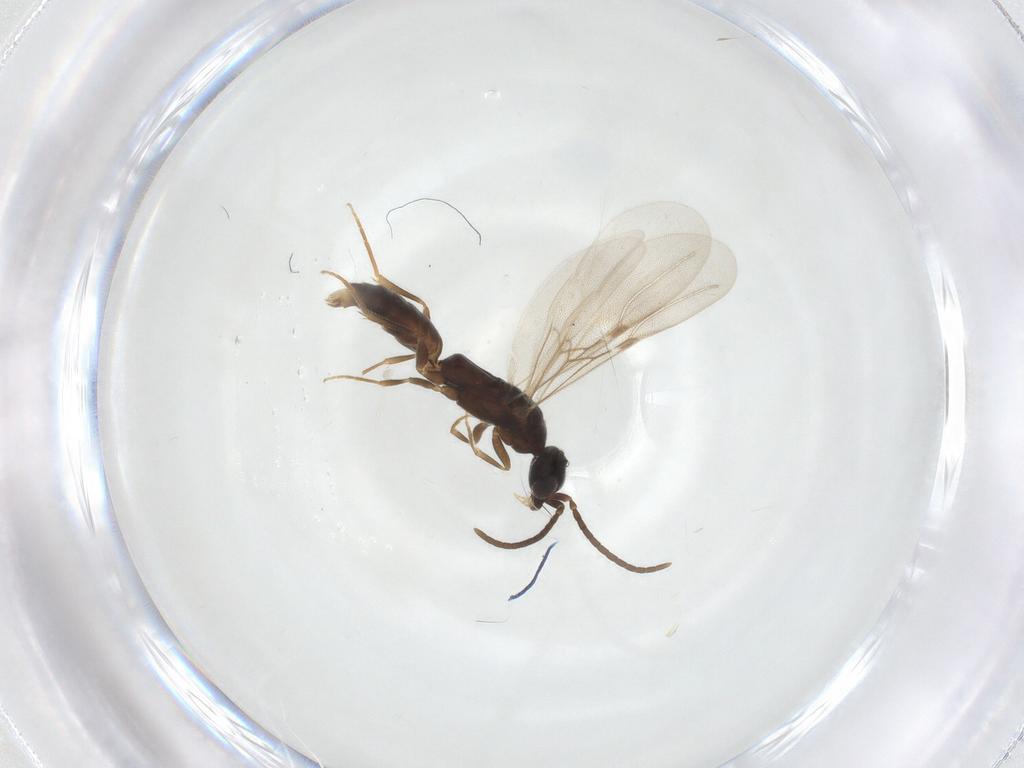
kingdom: Animalia
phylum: Arthropoda
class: Insecta
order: Hymenoptera
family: Bethylidae
